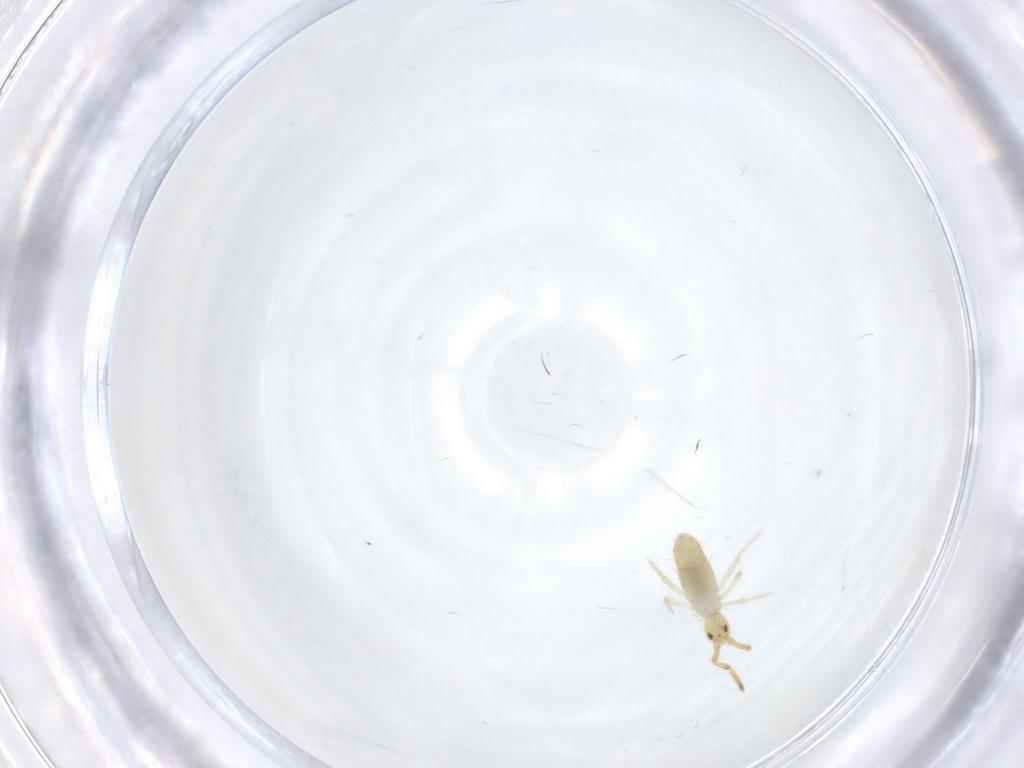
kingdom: Animalia
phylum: Arthropoda
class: Collembola
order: Entomobryomorpha
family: Entomobryidae
